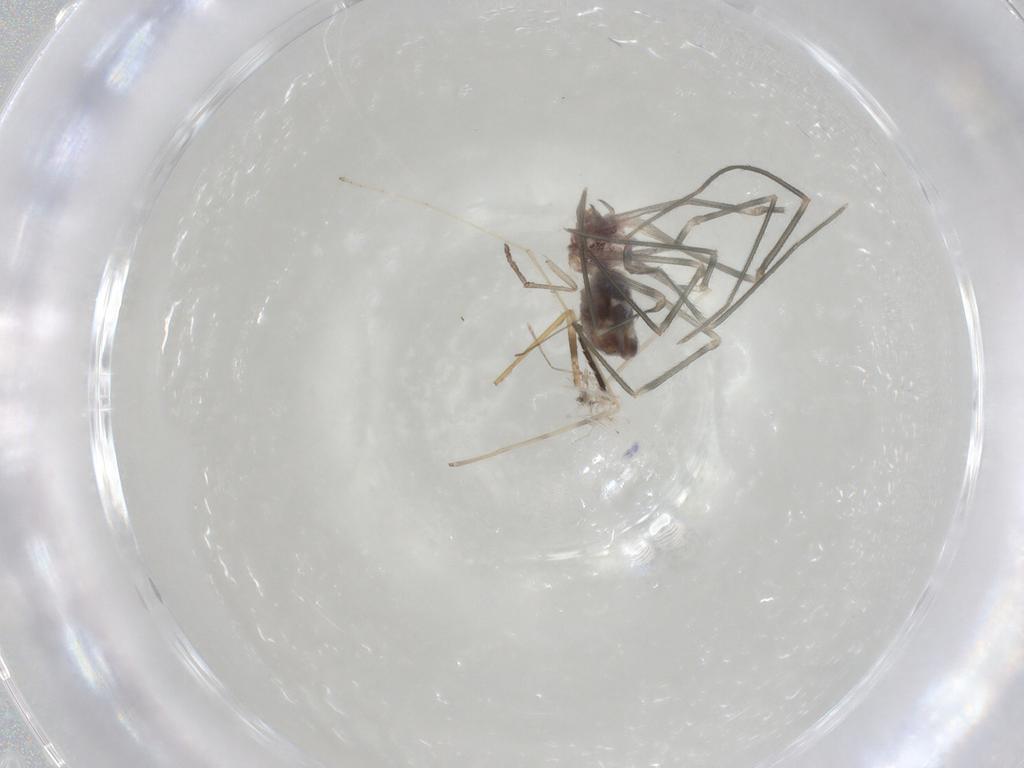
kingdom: Animalia
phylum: Arthropoda
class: Arachnida
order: Araneae
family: Pholcidae
